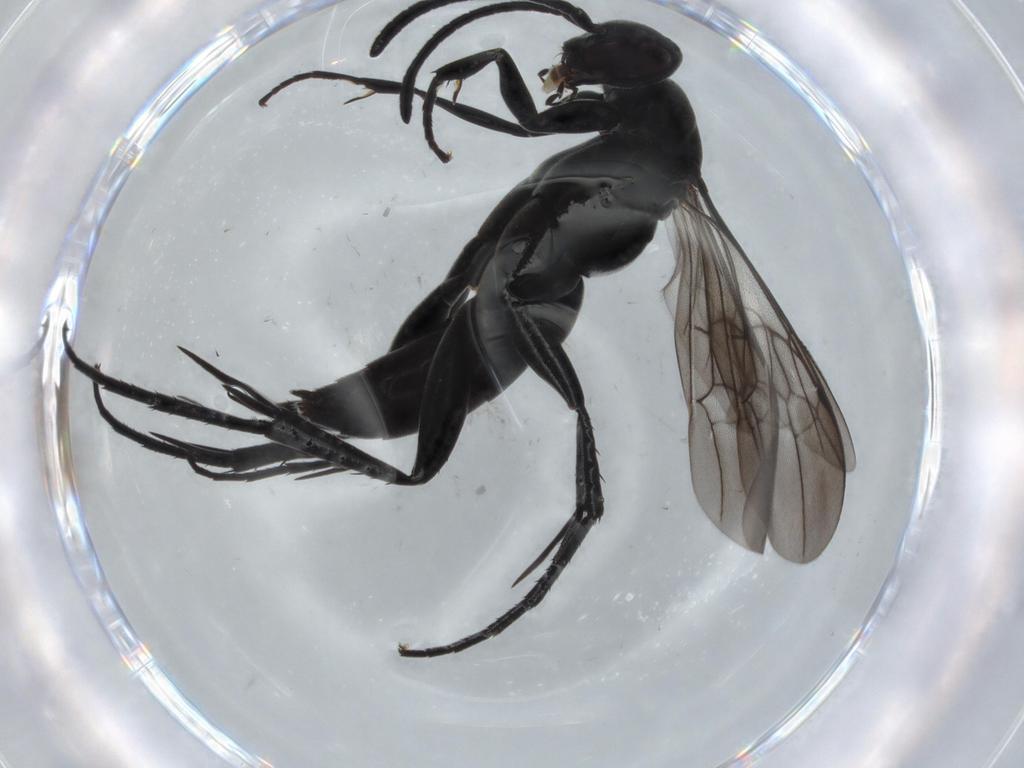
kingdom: Animalia
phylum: Arthropoda
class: Insecta
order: Hymenoptera
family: Pompilidae
